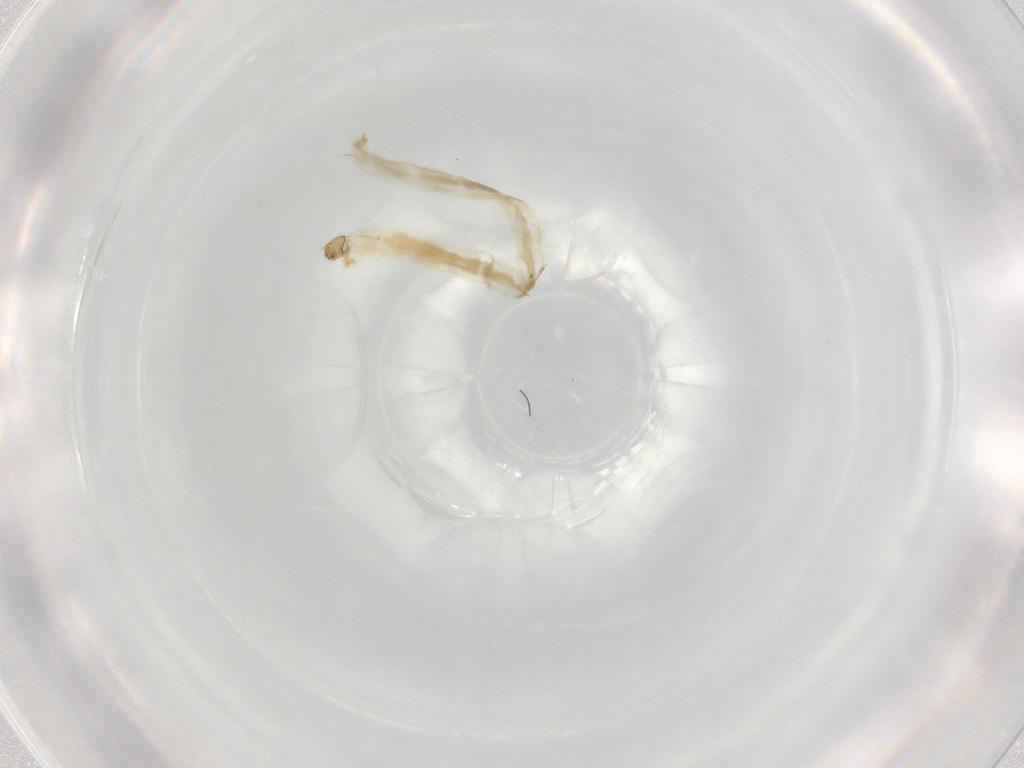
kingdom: Animalia
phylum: Arthropoda
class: Insecta
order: Diptera
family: Chironomidae
